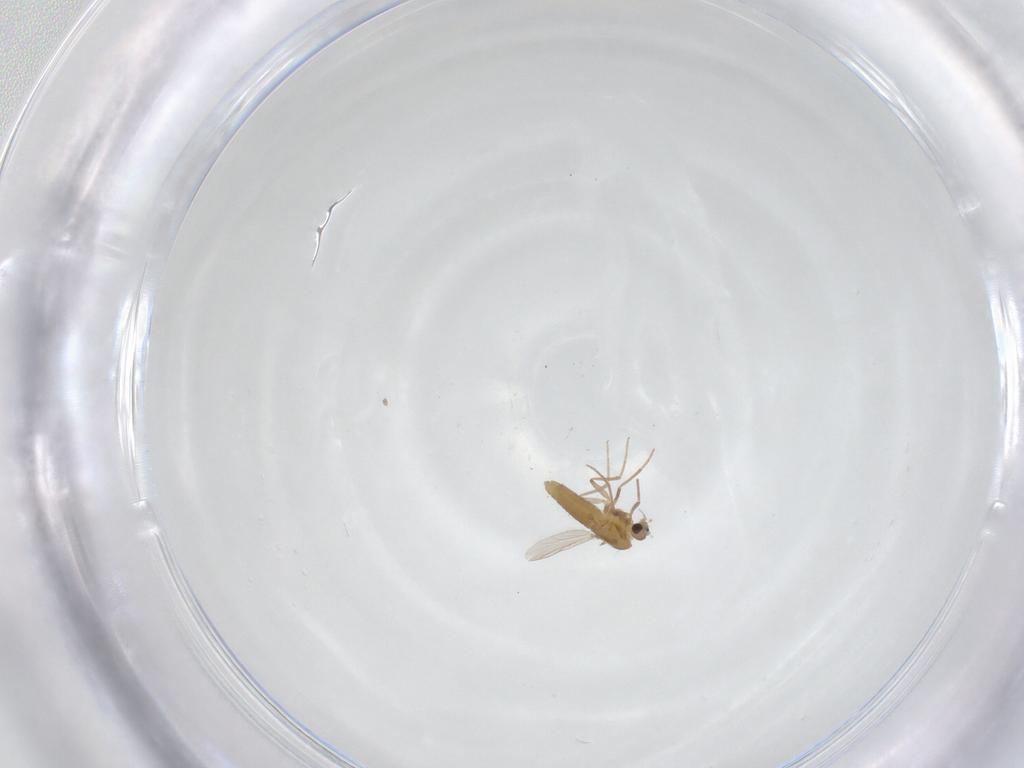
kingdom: Animalia
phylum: Arthropoda
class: Insecta
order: Diptera
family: Chironomidae
